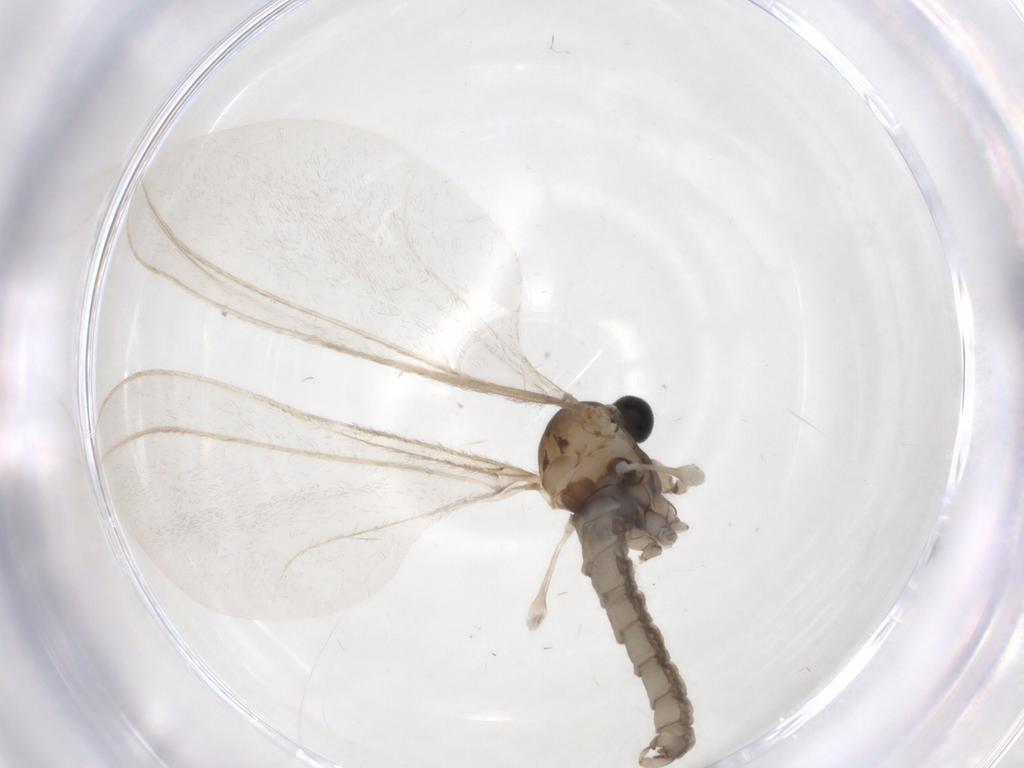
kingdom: Animalia
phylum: Arthropoda
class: Insecta
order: Diptera
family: Cecidomyiidae
